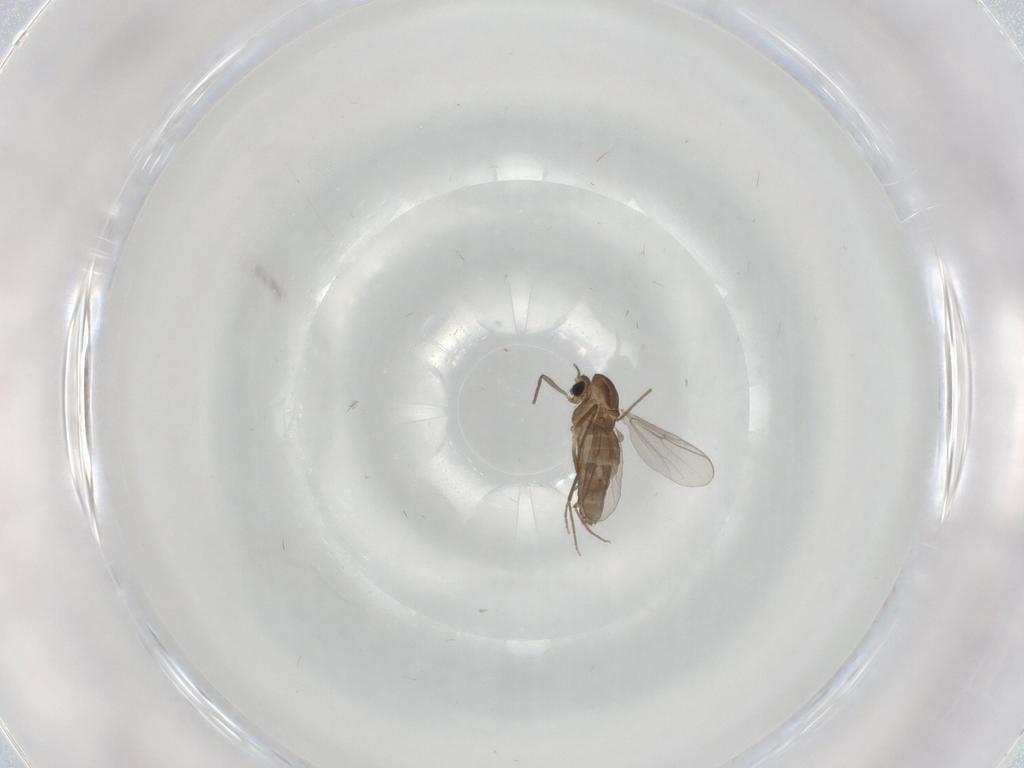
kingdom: Animalia
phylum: Arthropoda
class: Insecta
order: Diptera
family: Chironomidae
